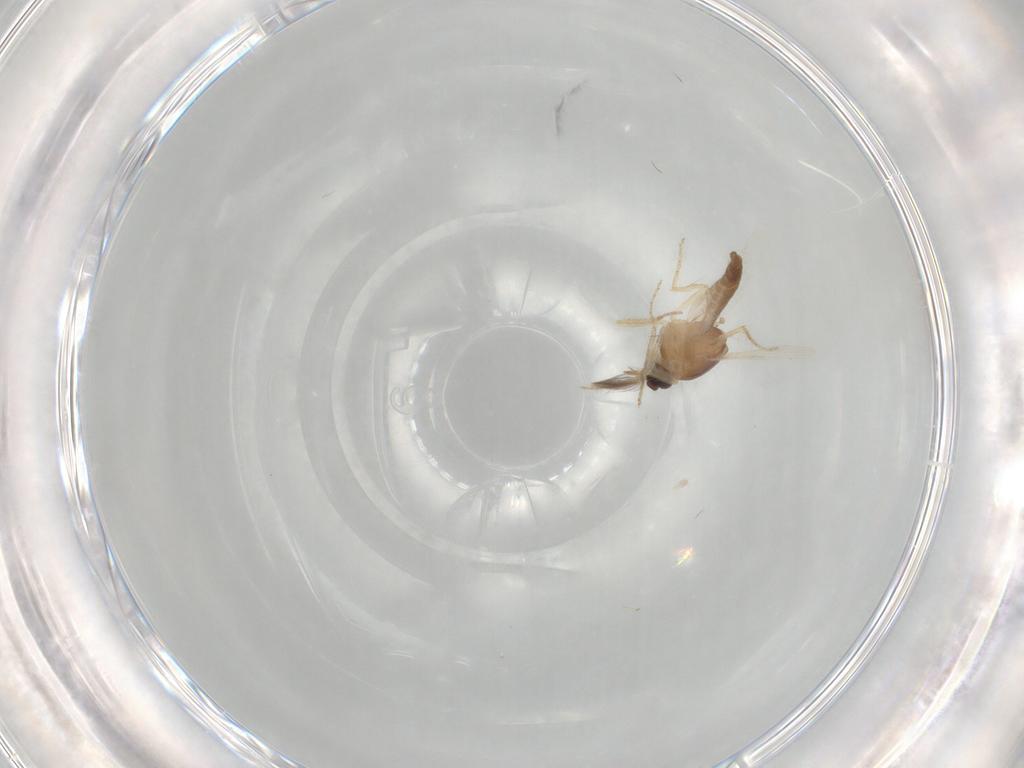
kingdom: Animalia
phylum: Arthropoda
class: Insecta
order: Diptera
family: Ceratopogonidae
